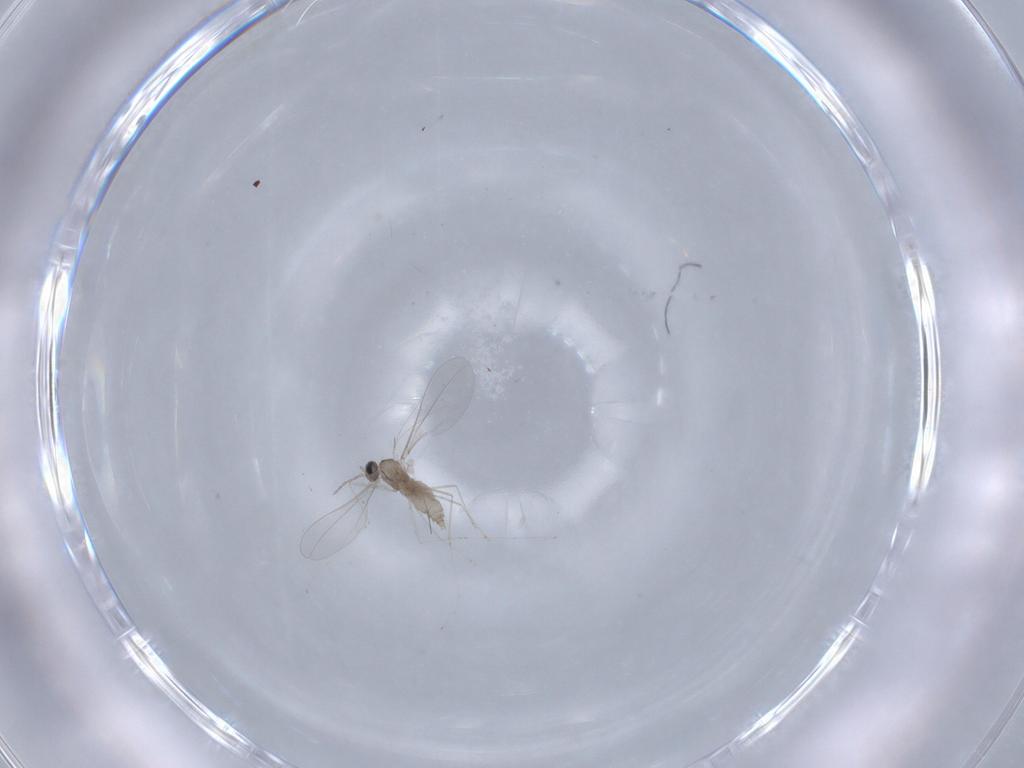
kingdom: Animalia
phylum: Arthropoda
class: Insecta
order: Diptera
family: Cecidomyiidae
